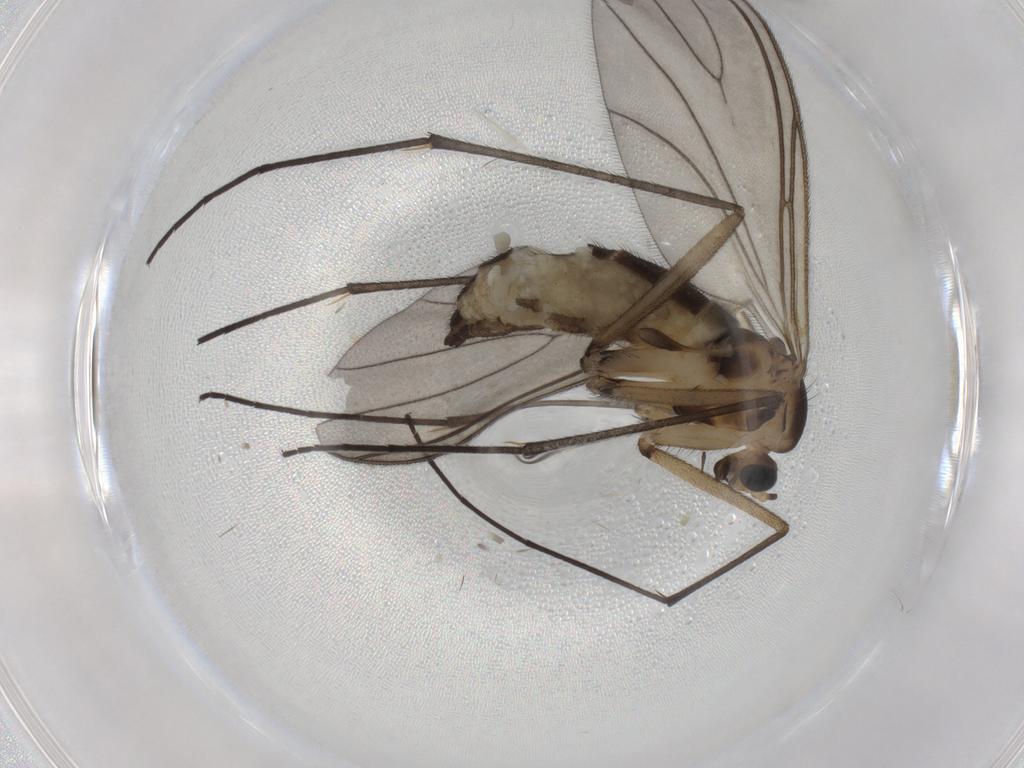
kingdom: Animalia
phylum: Arthropoda
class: Insecta
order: Diptera
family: Sciaridae
